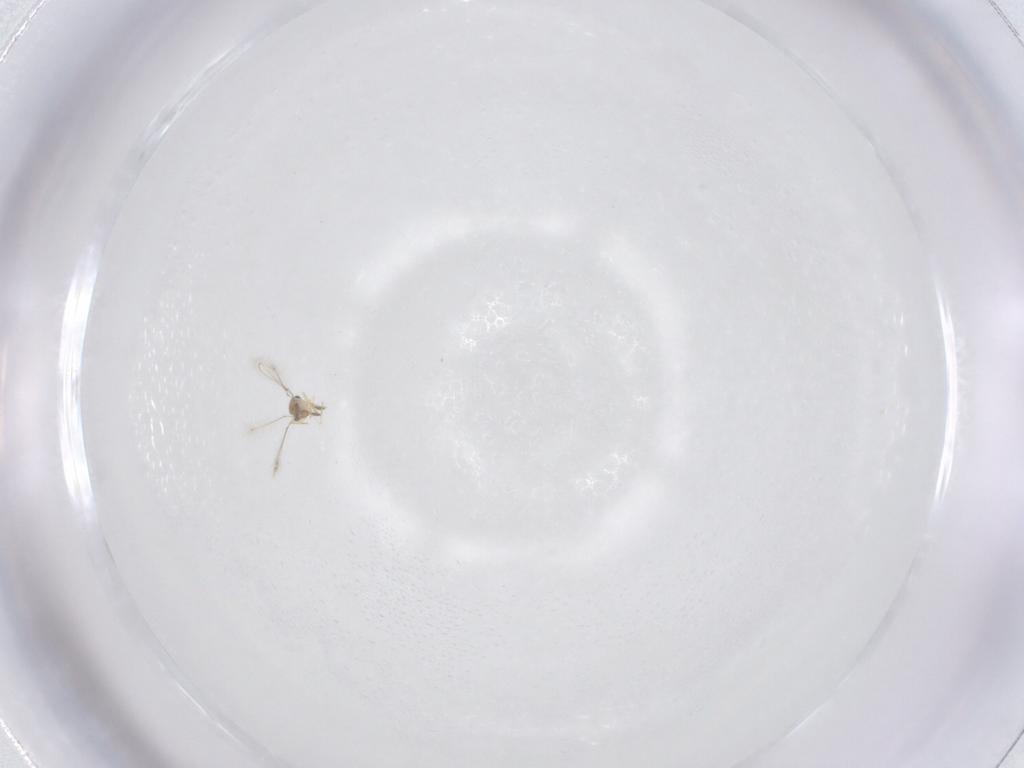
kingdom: Animalia
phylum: Arthropoda
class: Insecta
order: Hymenoptera
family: Mymaridae
